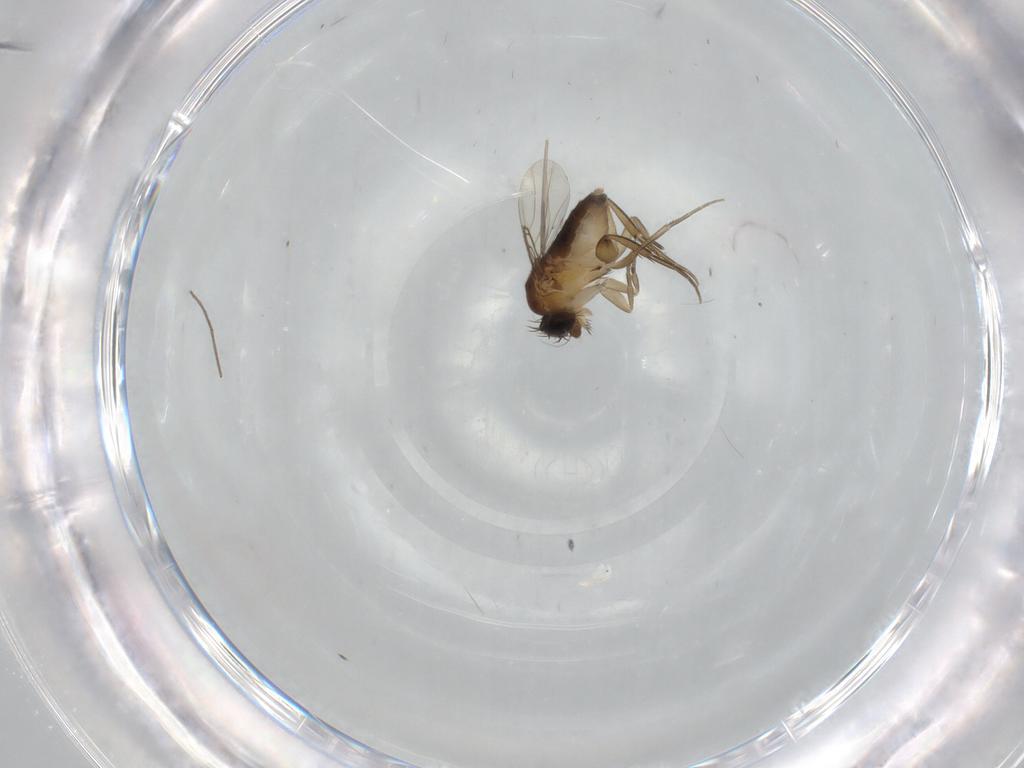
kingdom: Animalia
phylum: Arthropoda
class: Insecta
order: Diptera
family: Phoridae
